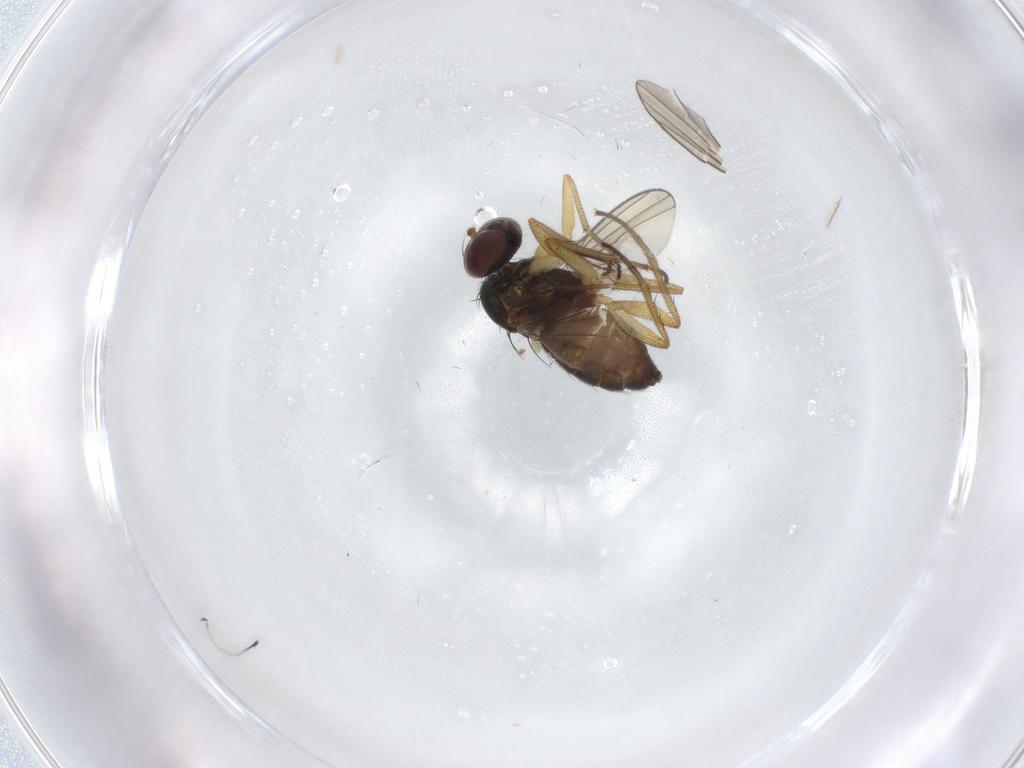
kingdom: Animalia
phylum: Arthropoda
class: Insecta
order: Diptera
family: Dolichopodidae
